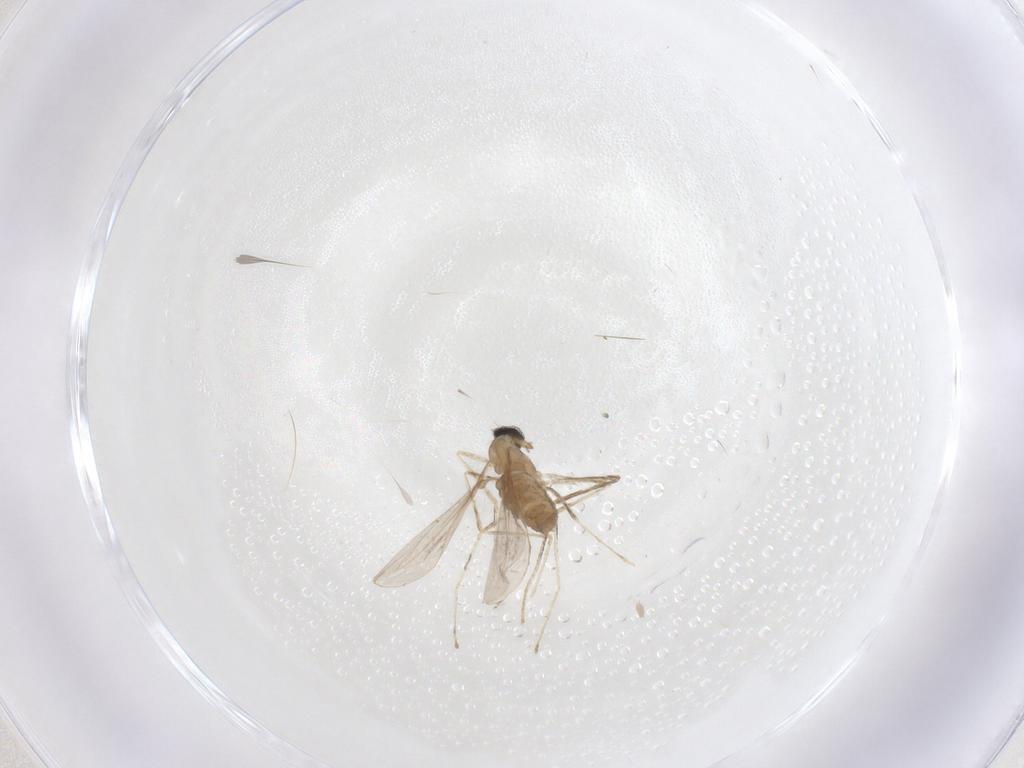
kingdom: Animalia
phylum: Arthropoda
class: Insecta
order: Diptera
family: Cecidomyiidae
